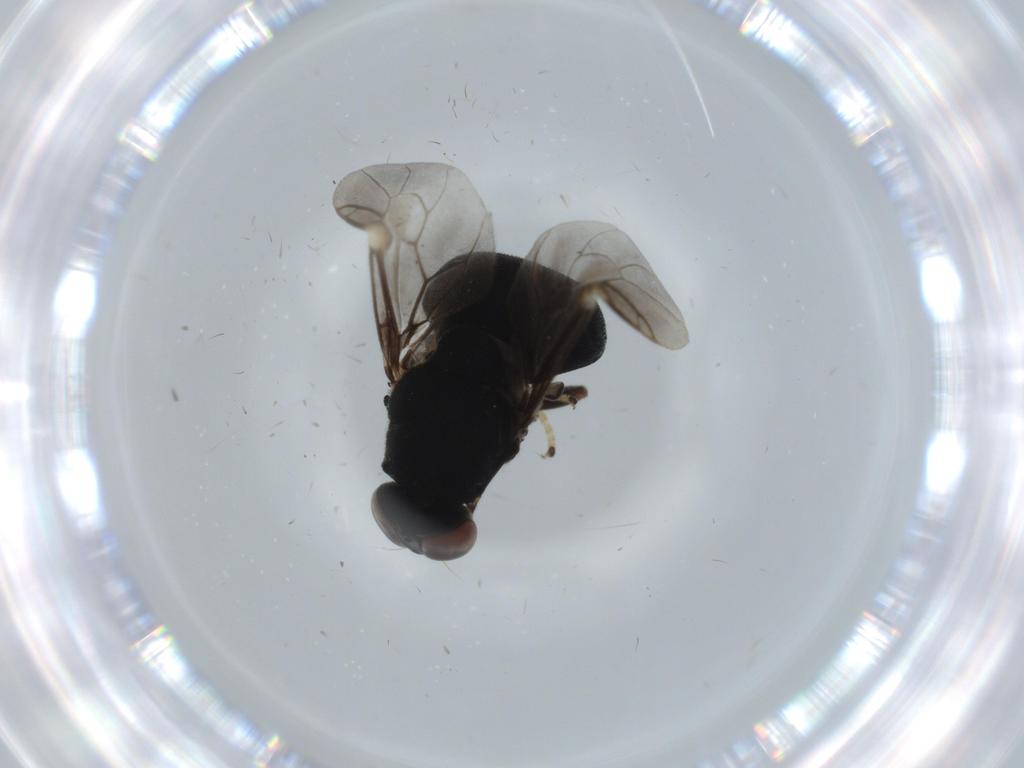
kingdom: Animalia
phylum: Arthropoda
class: Insecta
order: Diptera
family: Stratiomyidae
